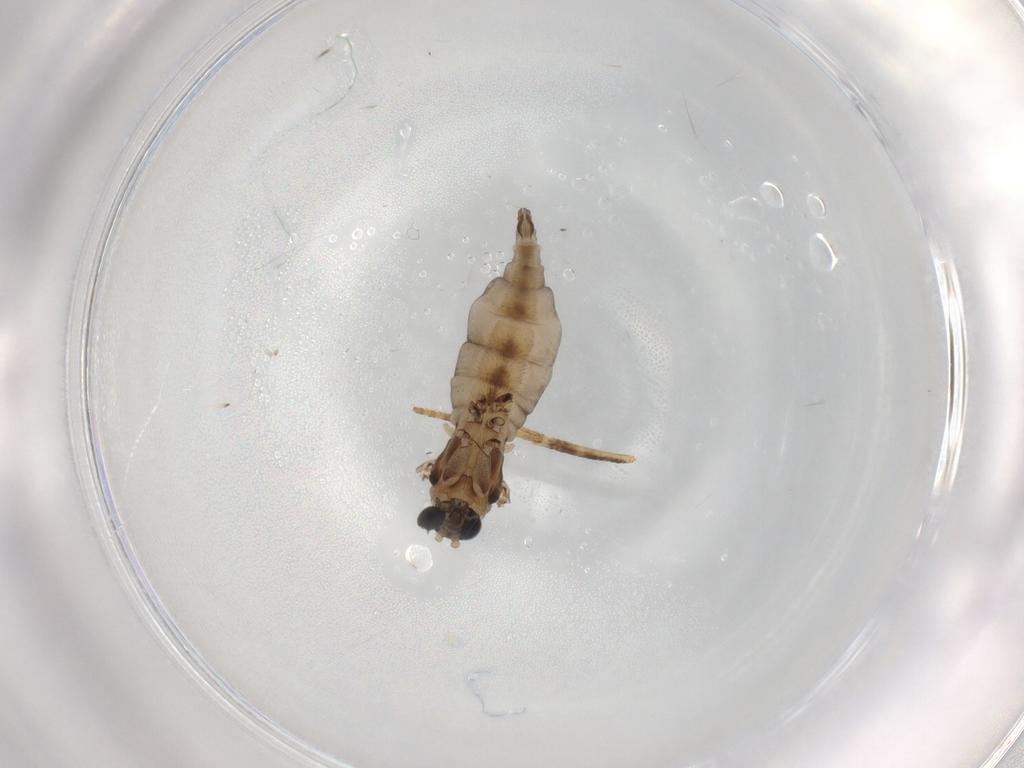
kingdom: Animalia
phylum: Arthropoda
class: Insecta
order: Diptera
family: Sciaridae
